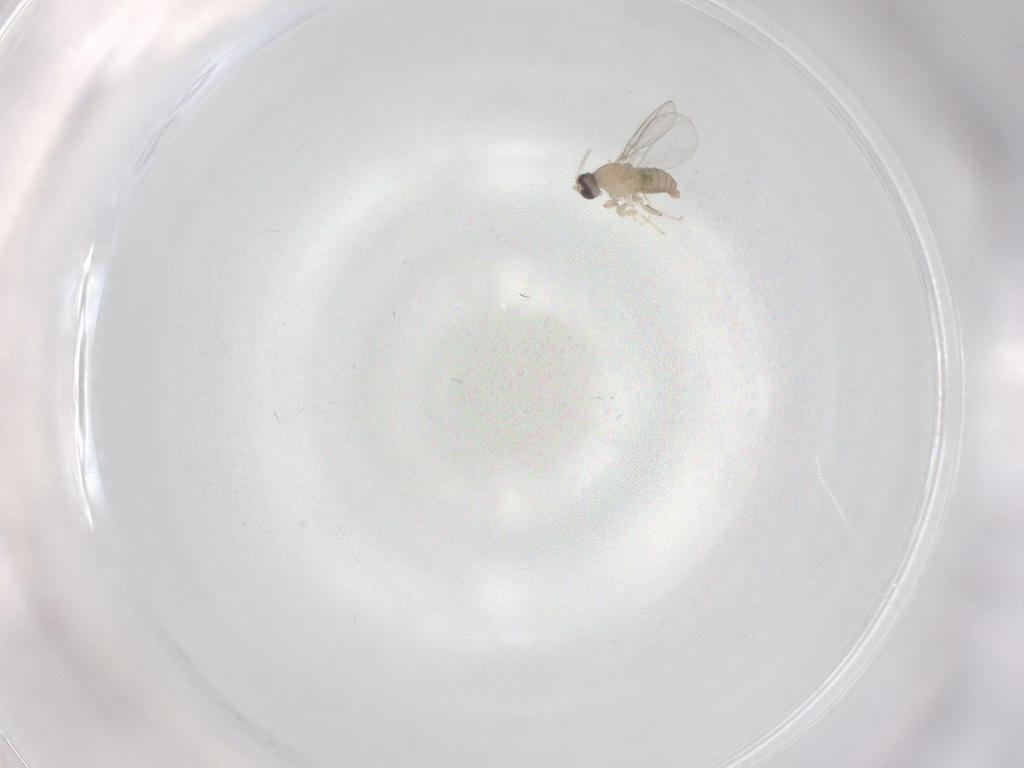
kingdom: Animalia
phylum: Arthropoda
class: Insecta
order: Diptera
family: Cecidomyiidae
